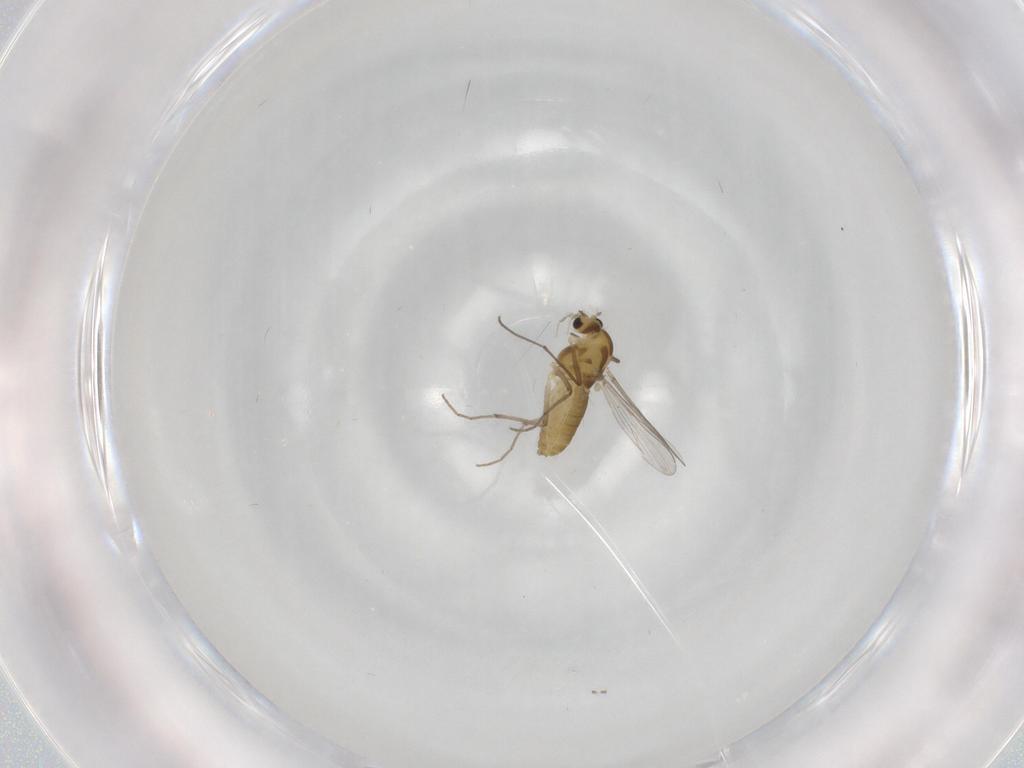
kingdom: Animalia
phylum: Arthropoda
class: Insecta
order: Diptera
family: Chironomidae
